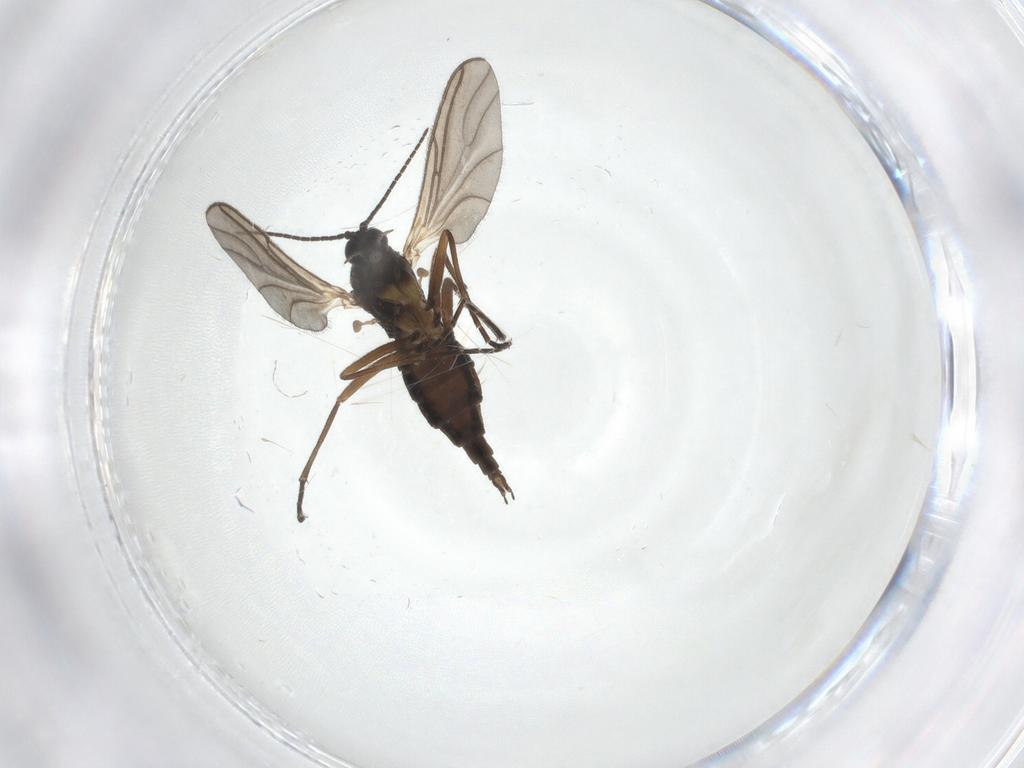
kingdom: Animalia
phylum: Arthropoda
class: Insecta
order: Diptera
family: Sciaridae
